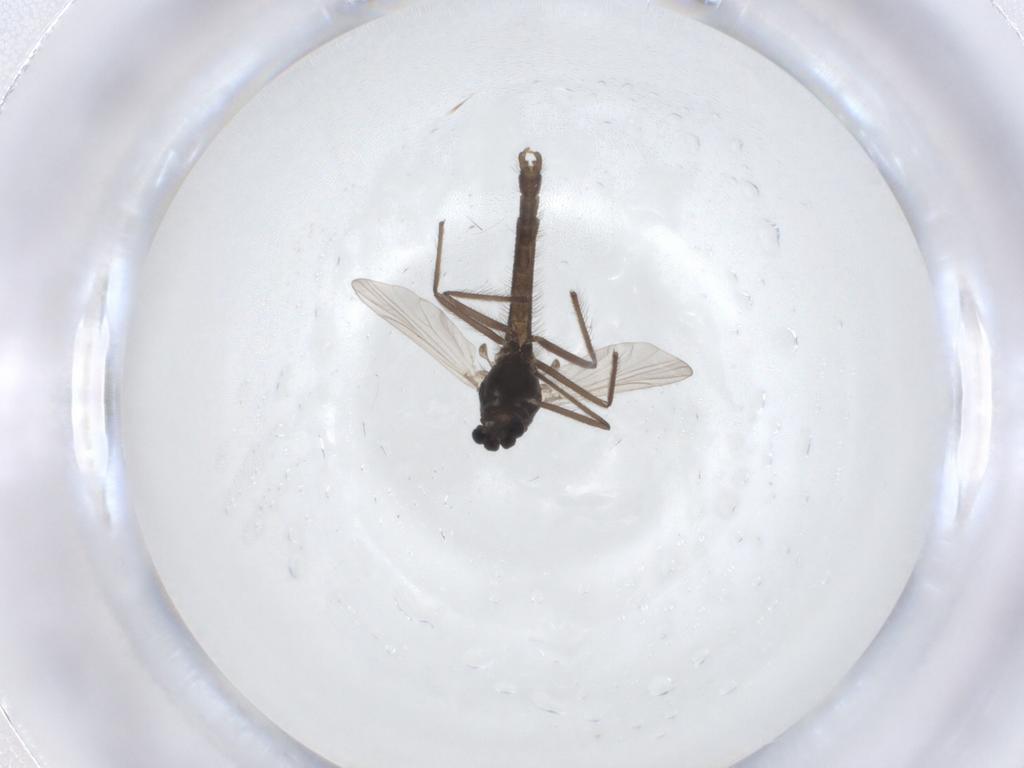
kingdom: Animalia
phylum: Arthropoda
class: Insecta
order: Diptera
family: Chironomidae
